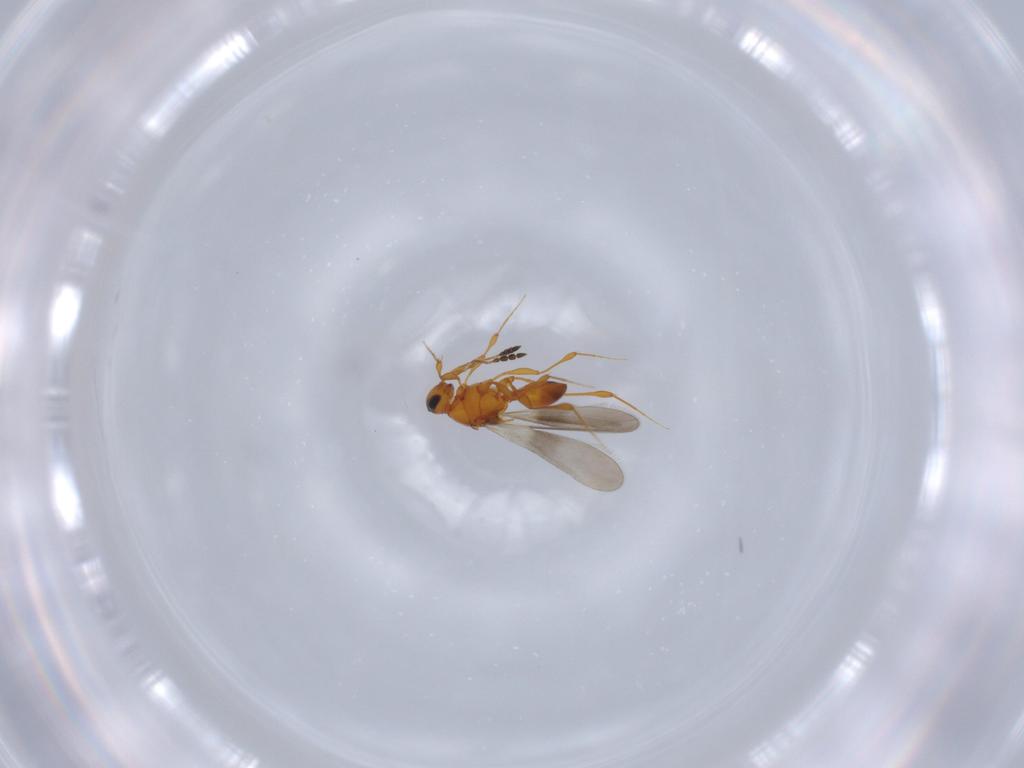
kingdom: Animalia
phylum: Arthropoda
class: Insecta
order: Hymenoptera
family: Platygastridae
